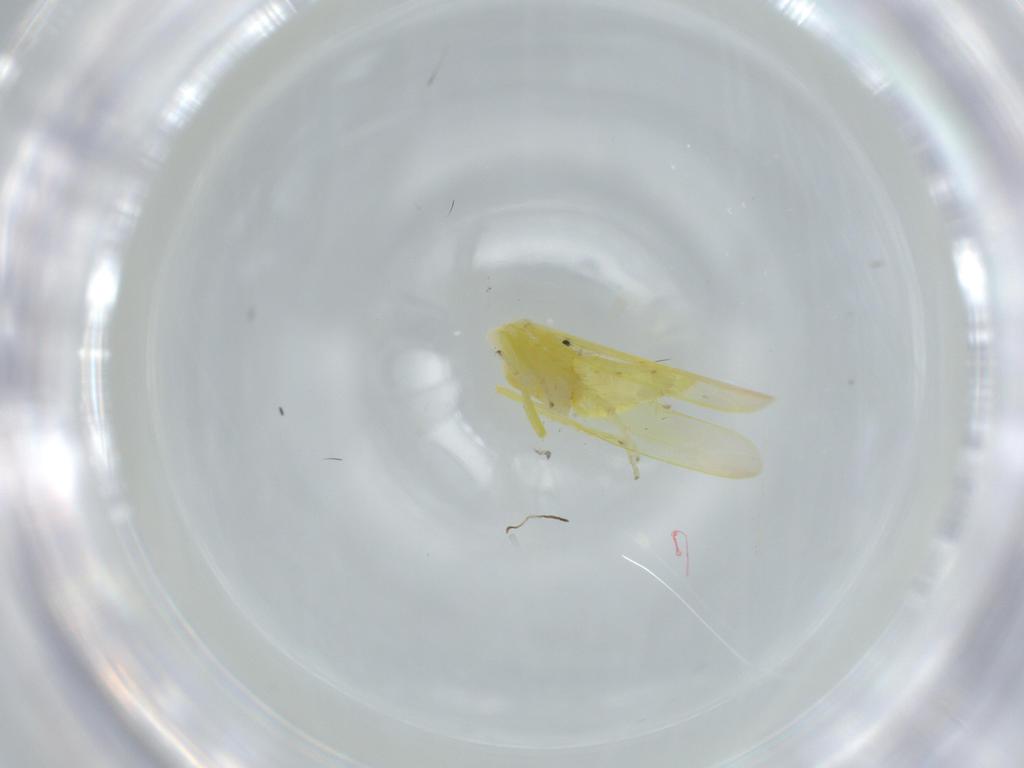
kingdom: Animalia
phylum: Arthropoda
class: Insecta
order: Hemiptera
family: Cicadellidae
